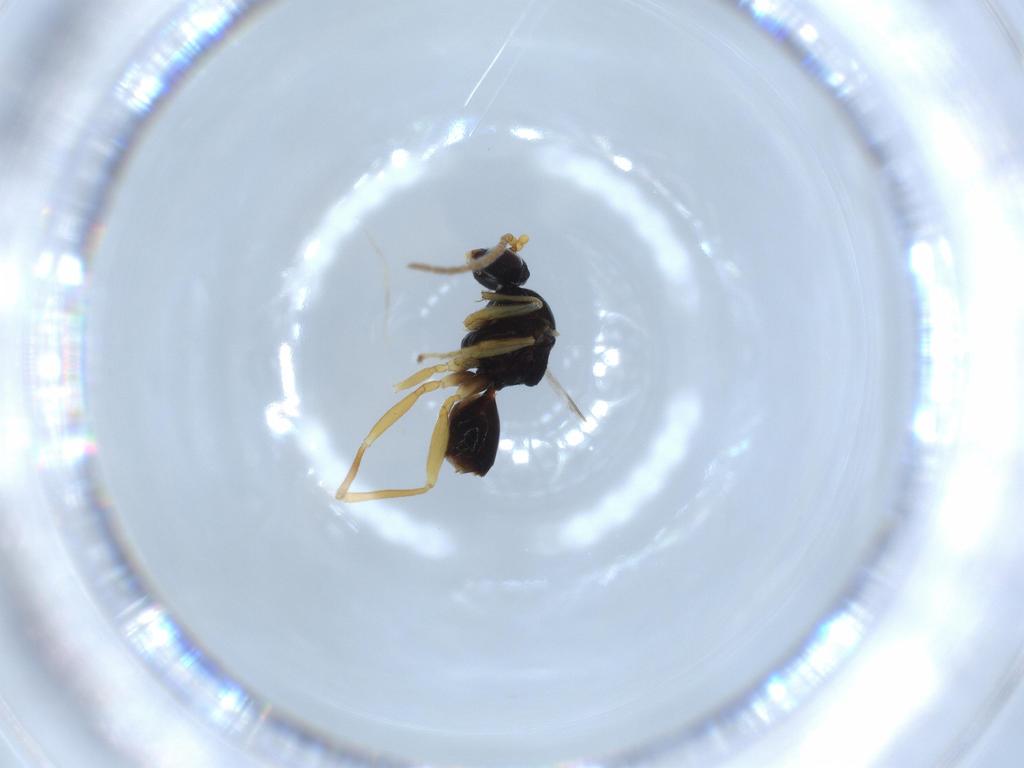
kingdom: Animalia
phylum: Arthropoda
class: Insecta
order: Hymenoptera
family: Cynipidae
